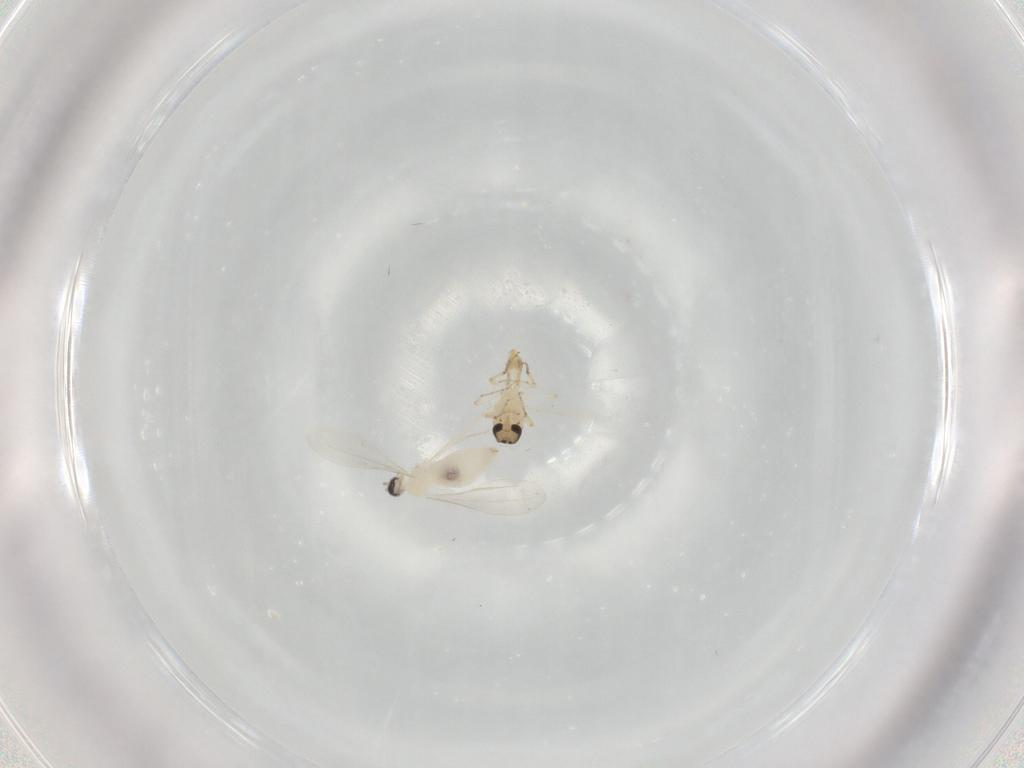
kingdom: Animalia
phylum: Arthropoda
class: Insecta
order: Diptera
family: Ceratopogonidae
